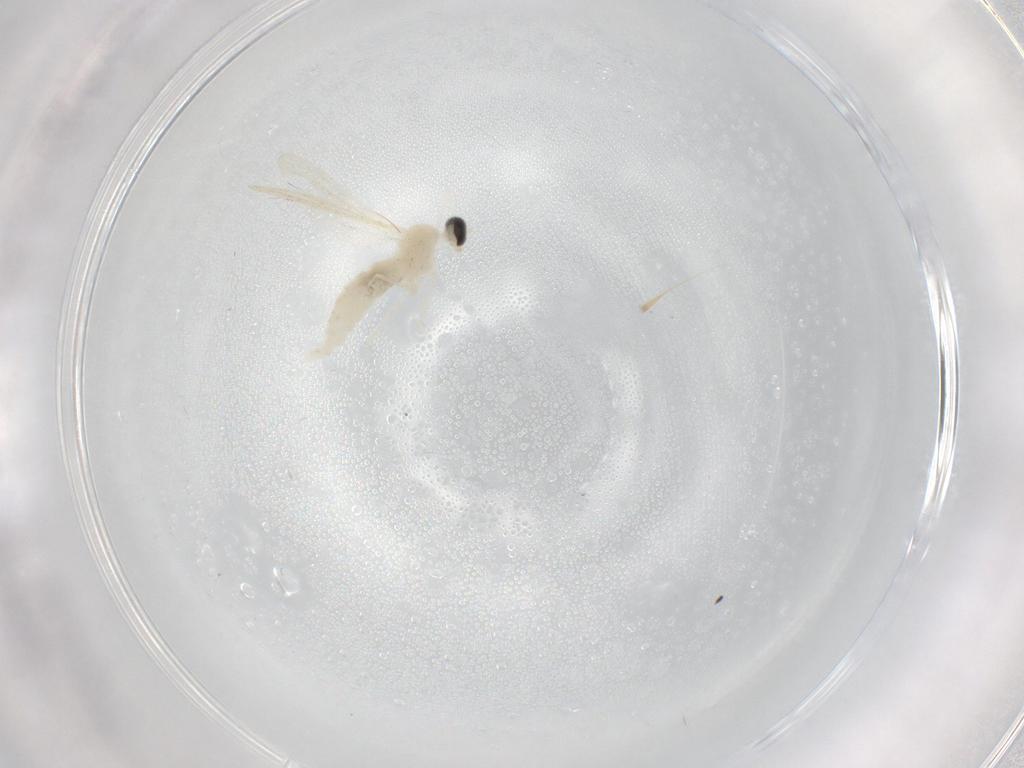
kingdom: Animalia
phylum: Arthropoda
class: Insecta
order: Diptera
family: Cecidomyiidae
